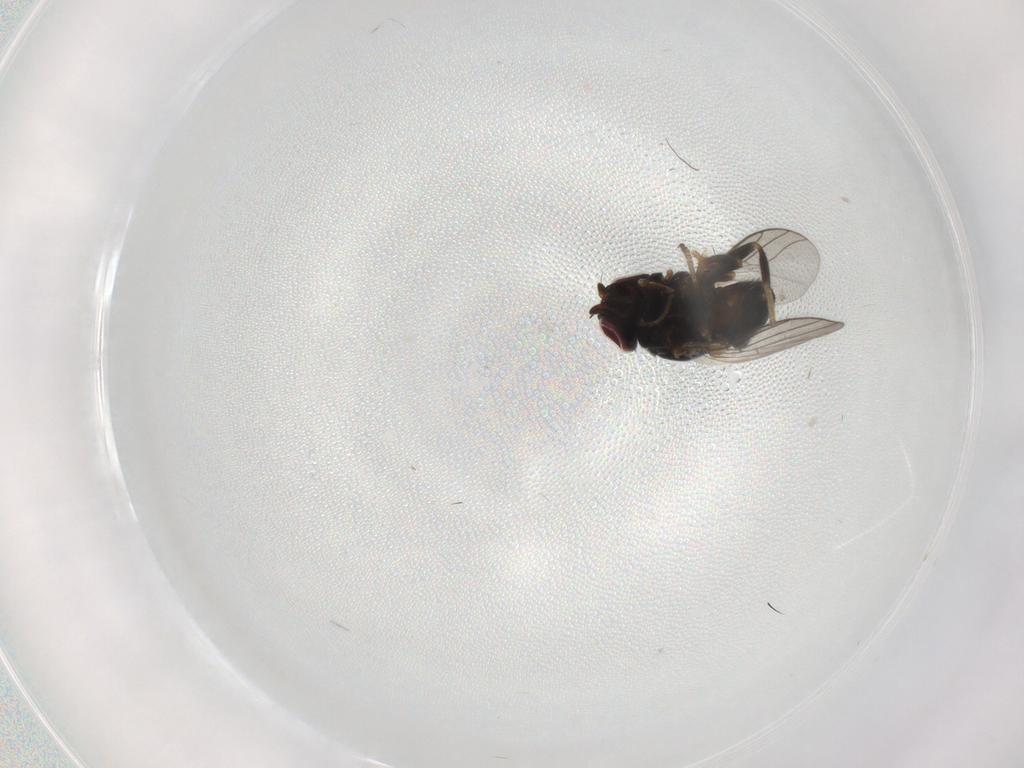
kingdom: Animalia
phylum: Arthropoda
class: Insecta
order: Diptera
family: Chloropidae
